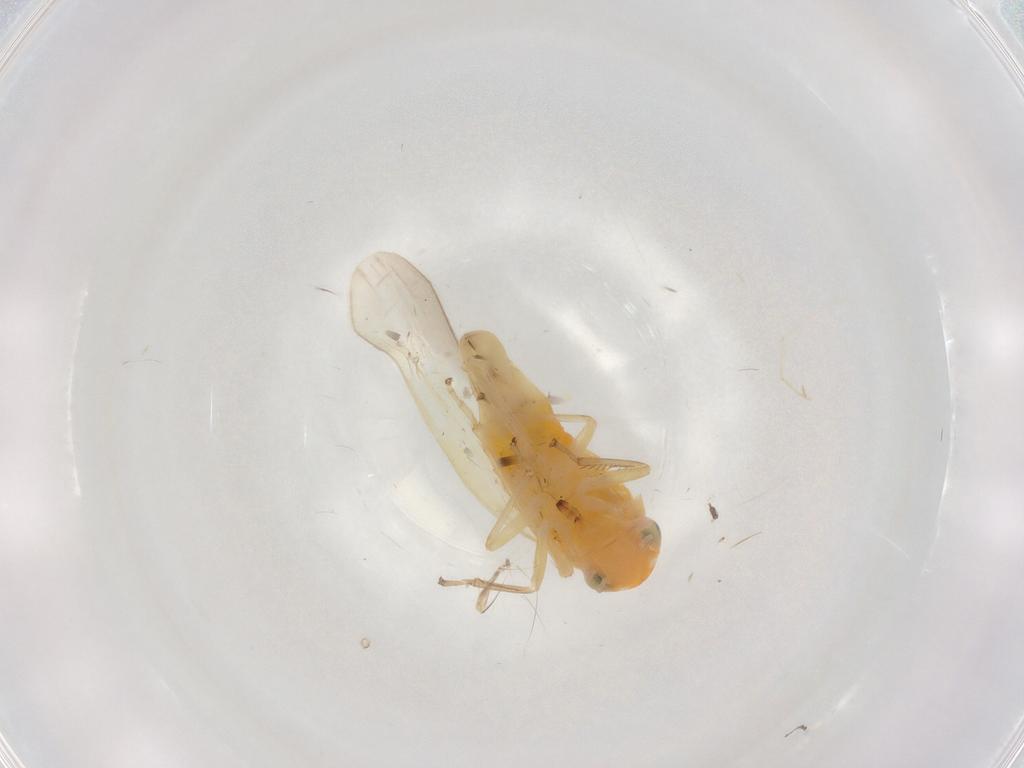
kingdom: Animalia
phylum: Arthropoda
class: Insecta
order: Hemiptera
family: Cicadellidae
